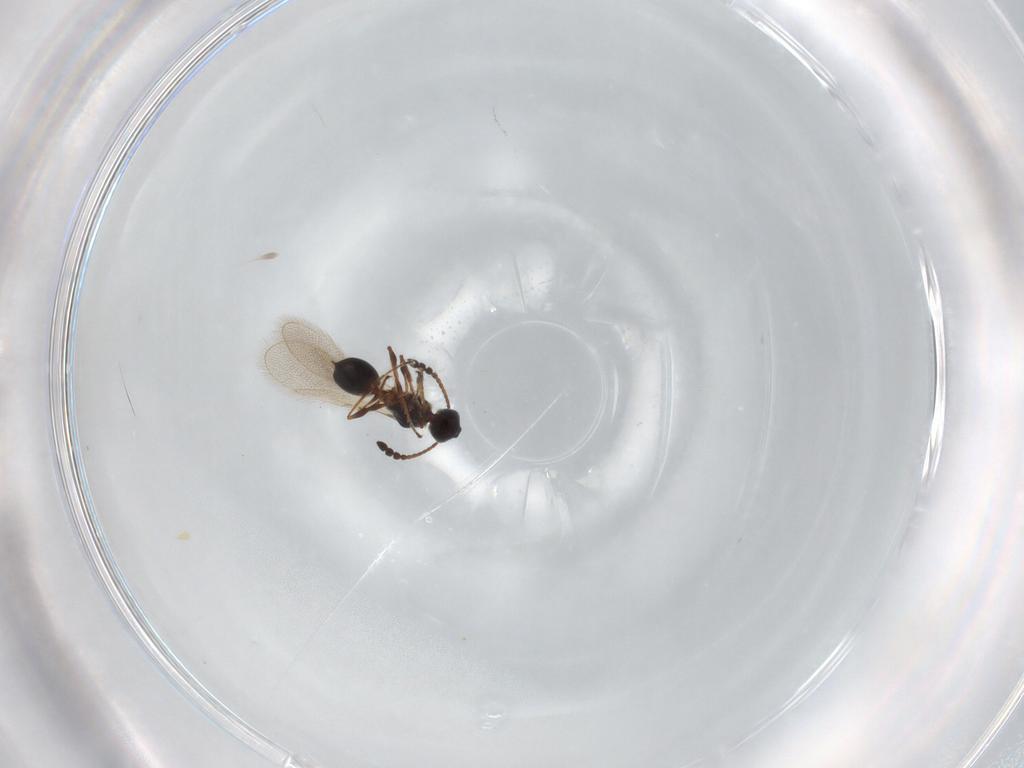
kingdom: Animalia
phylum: Arthropoda
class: Insecta
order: Hymenoptera
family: Diapriidae
